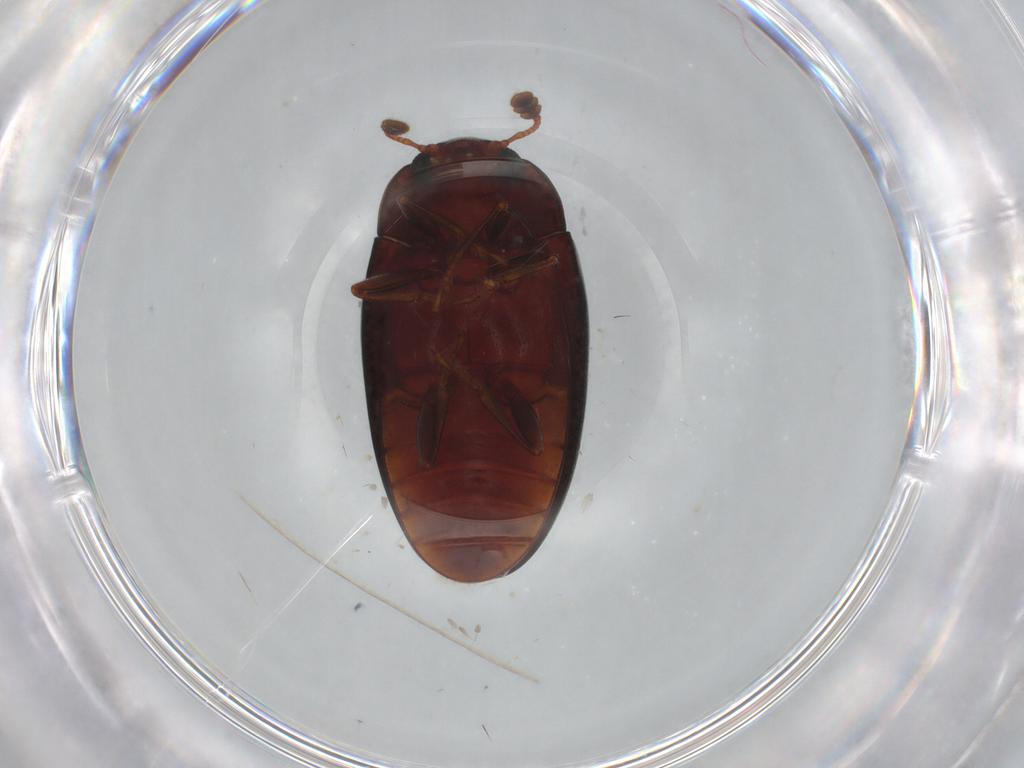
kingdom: Animalia
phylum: Arthropoda
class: Insecta
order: Coleoptera
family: Erotylidae
